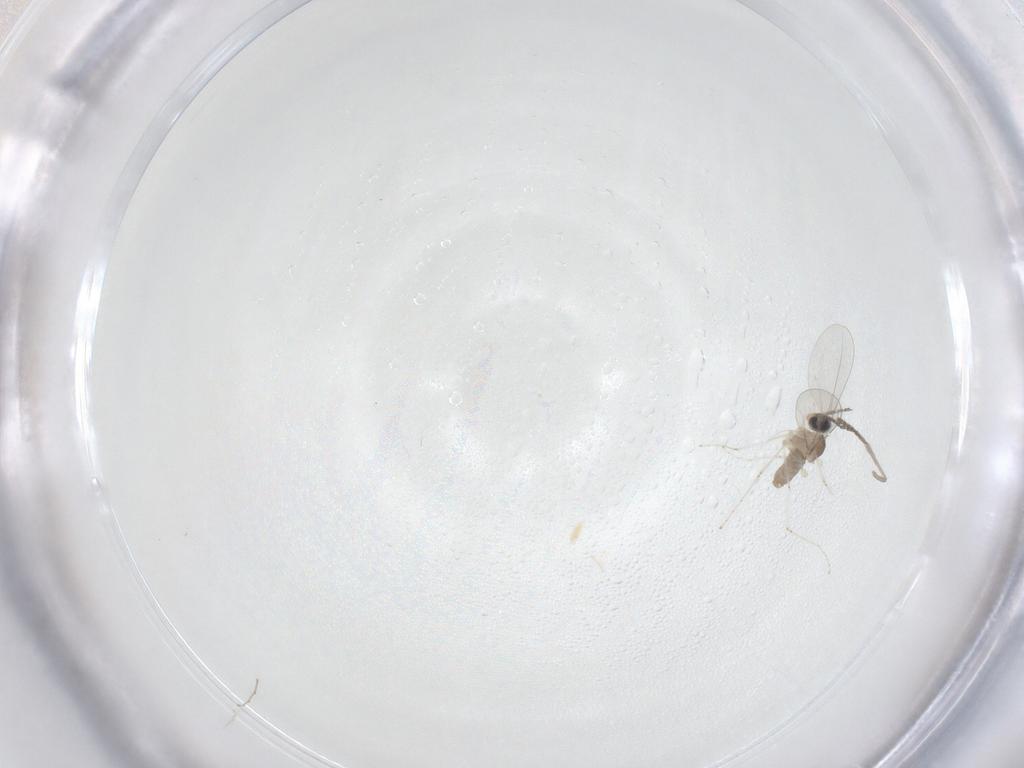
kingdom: Animalia
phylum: Arthropoda
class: Insecta
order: Diptera
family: Psychodidae
